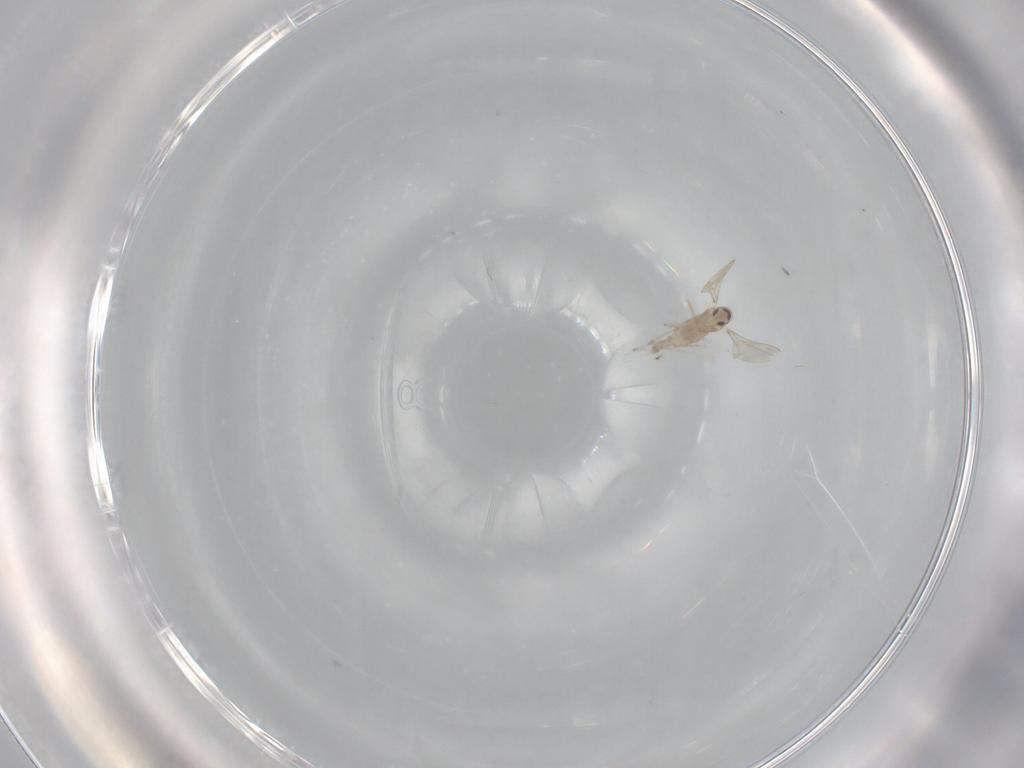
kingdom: Animalia
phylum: Arthropoda
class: Insecta
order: Diptera
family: Cecidomyiidae
